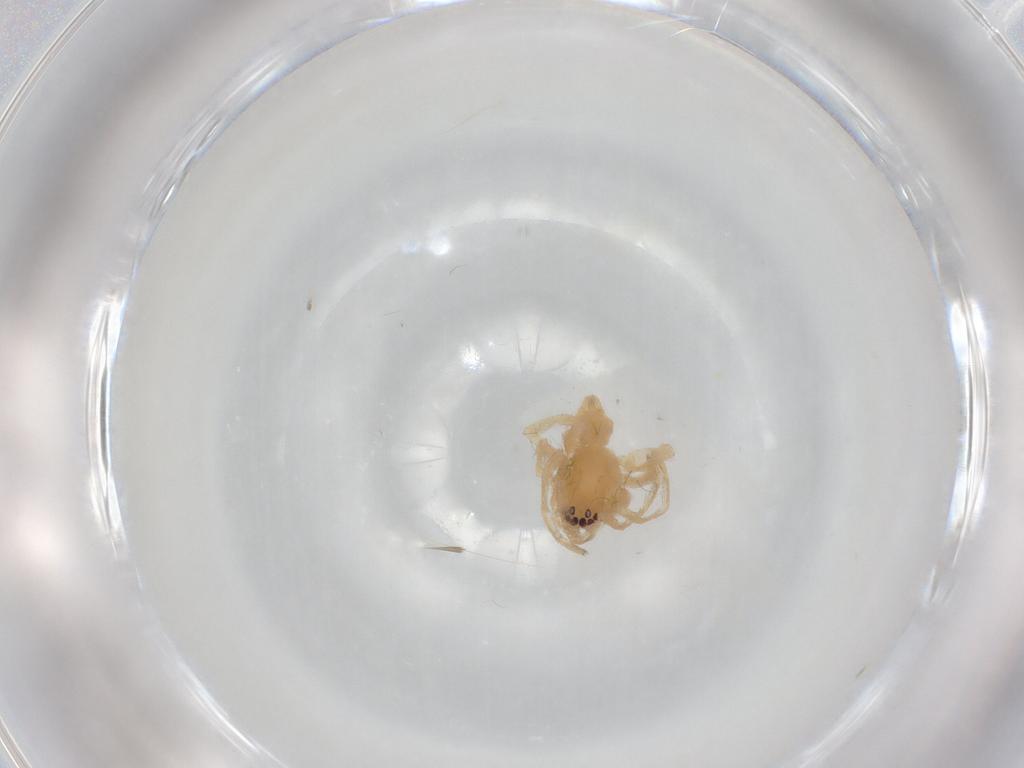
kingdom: Animalia
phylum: Arthropoda
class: Arachnida
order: Araneae
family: Clubionidae
